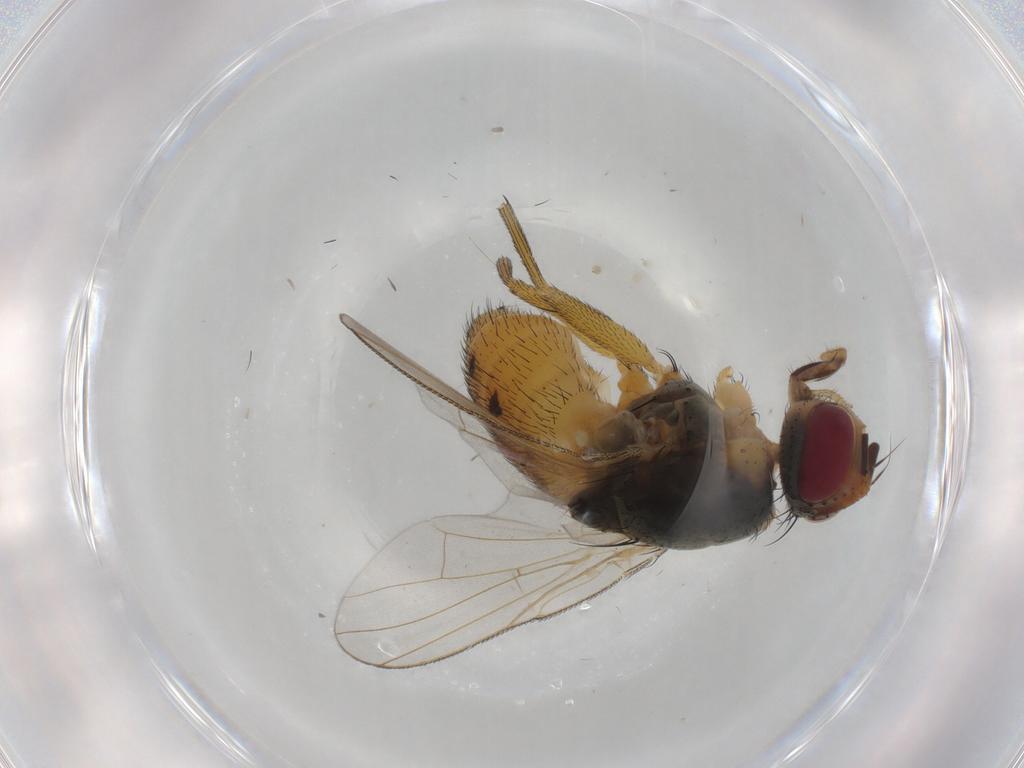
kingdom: Animalia
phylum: Arthropoda
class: Insecta
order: Diptera
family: Muscidae
